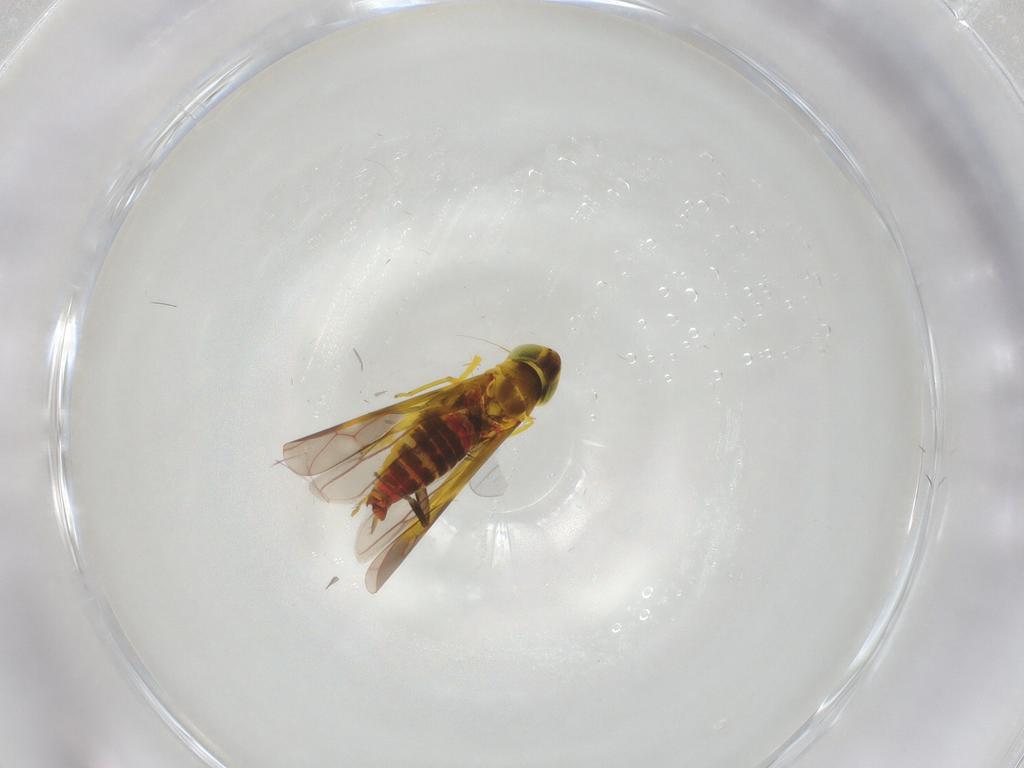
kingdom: Animalia
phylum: Arthropoda
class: Insecta
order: Hemiptera
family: Cicadellidae
